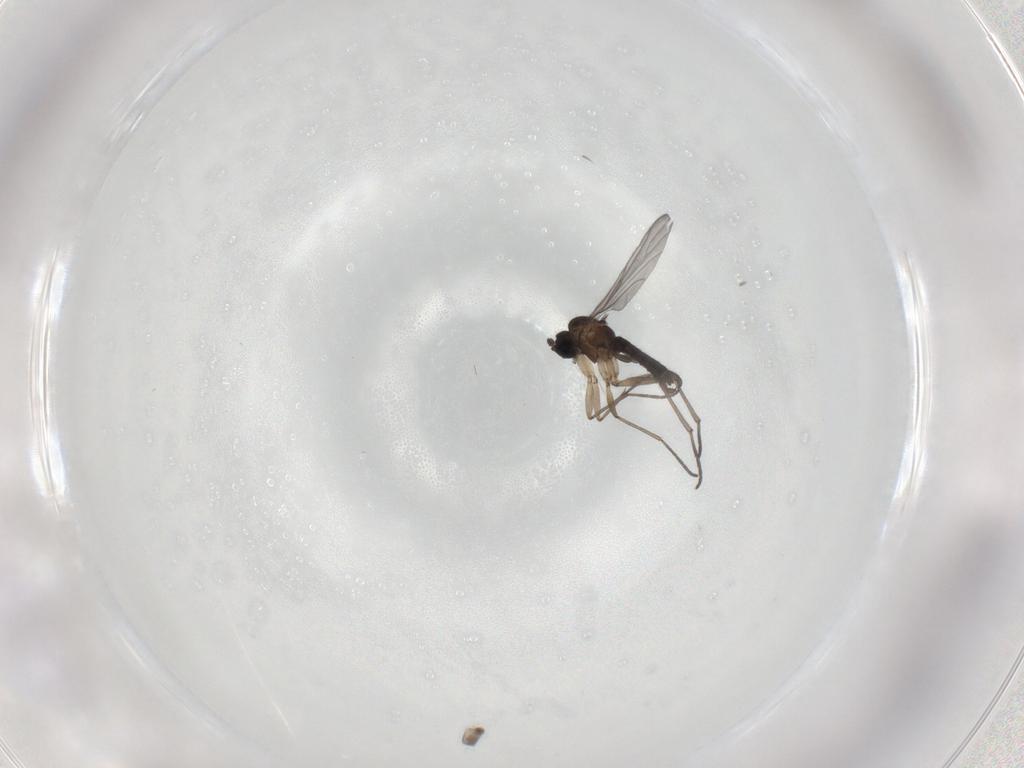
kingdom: Animalia
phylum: Arthropoda
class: Insecta
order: Diptera
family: Sciaridae
